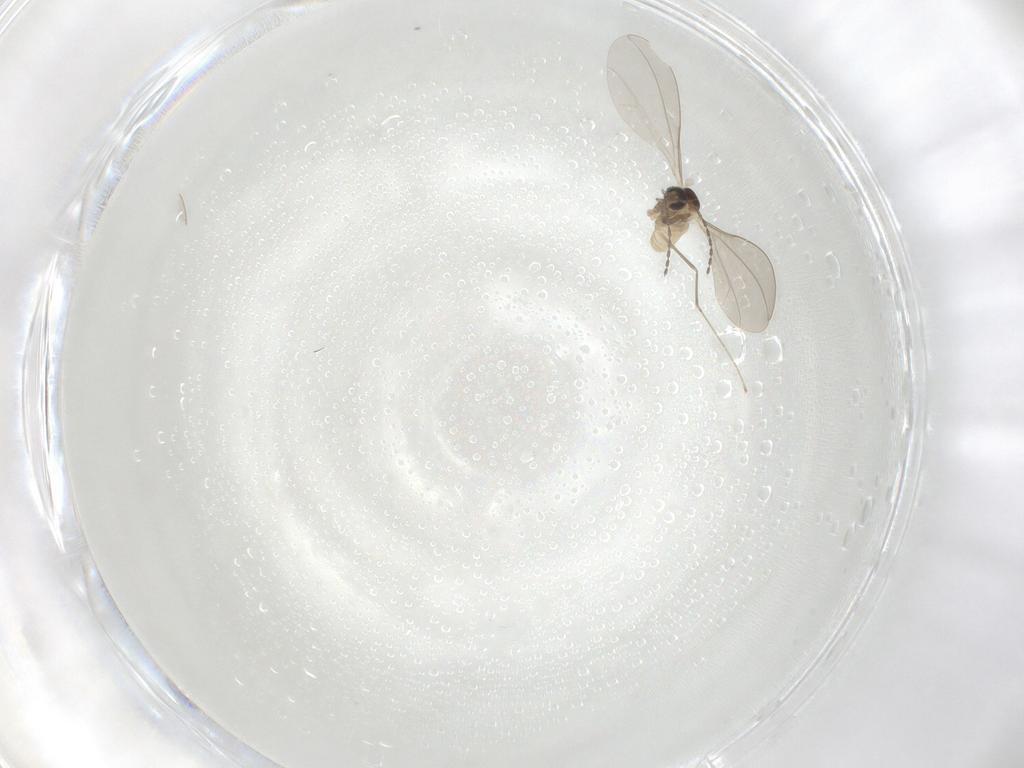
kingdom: Animalia
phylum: Arthropoda
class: Insecta
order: Diptera
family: Cecidomyiidae
